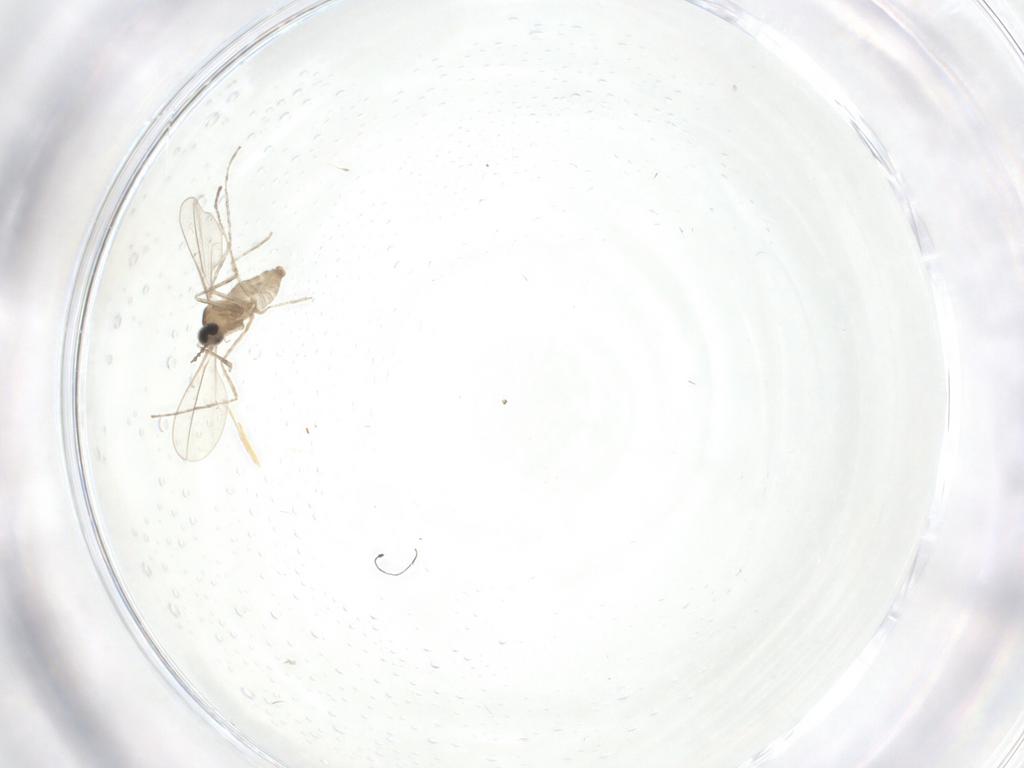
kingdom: Animalia
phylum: Arthropoda
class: Insecta
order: Diptera
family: Cecidomyiidae
